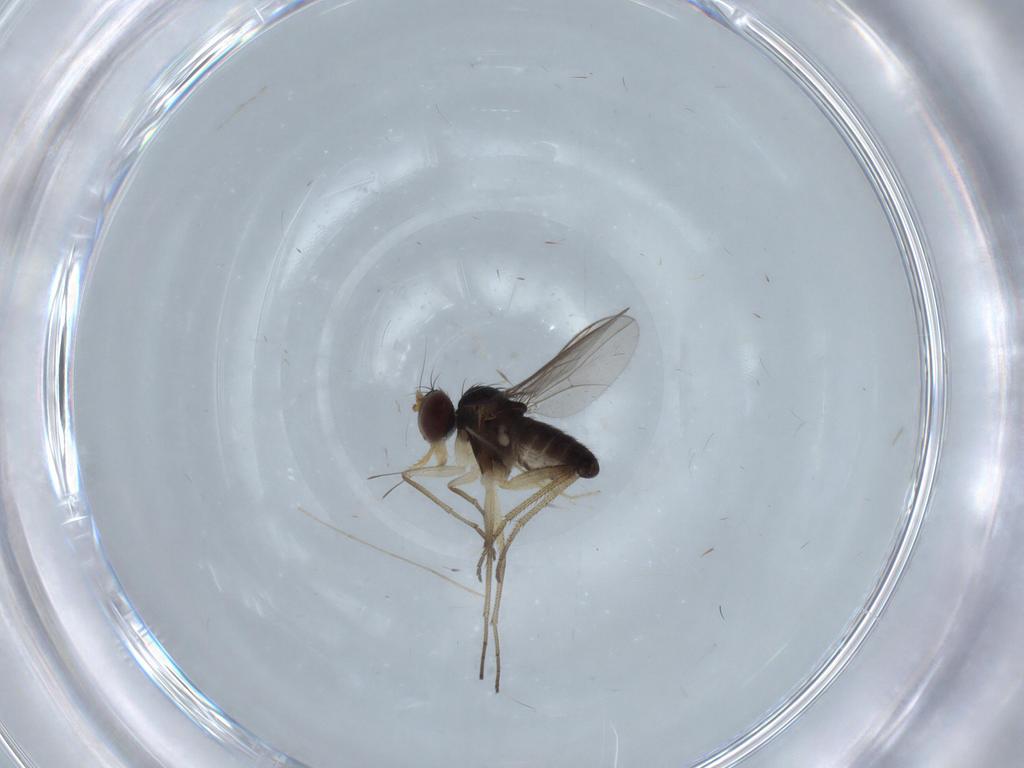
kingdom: Animalia
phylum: Arthropoda
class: Insecta
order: Diptera
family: Dolichopodidae
